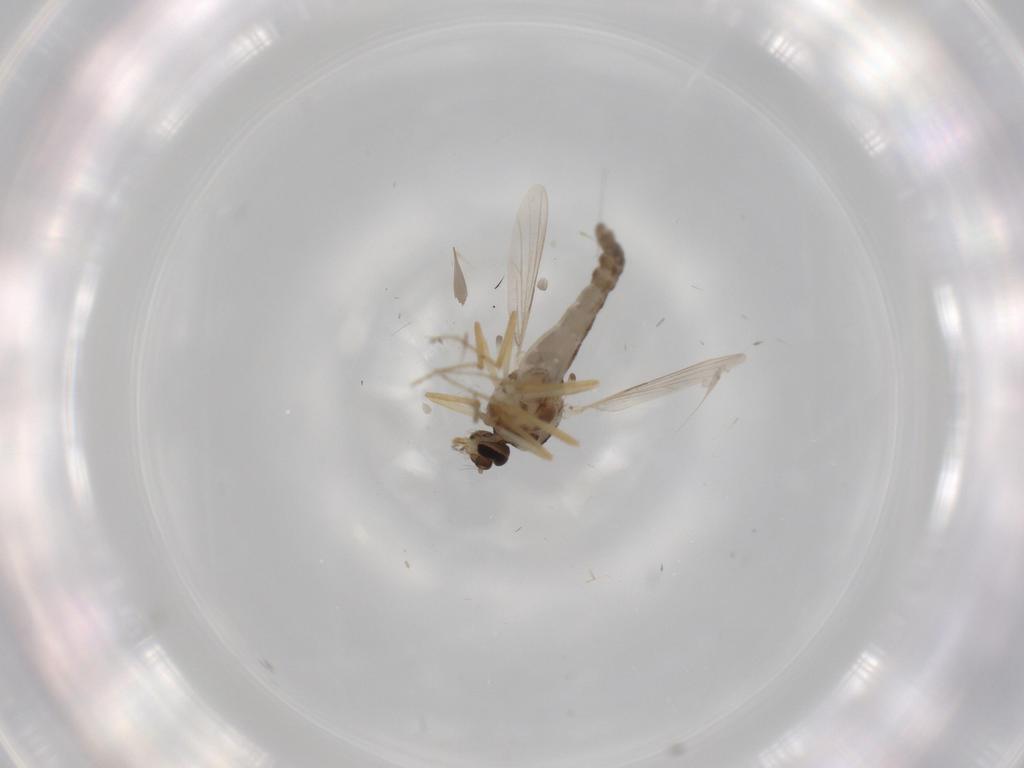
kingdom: Animalia
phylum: Arthropoda
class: Insecta
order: Diptera
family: Ceratopogonidae
